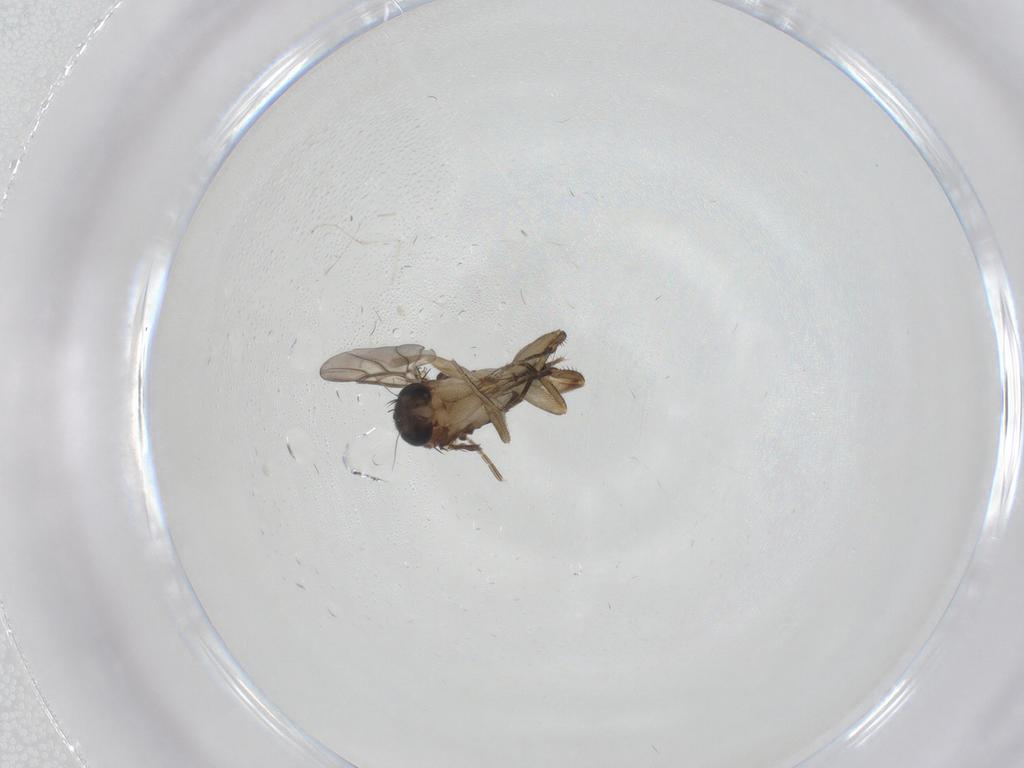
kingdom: Animalia
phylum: Arthropoda
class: Insecta
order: Diptera
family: Phoridae
